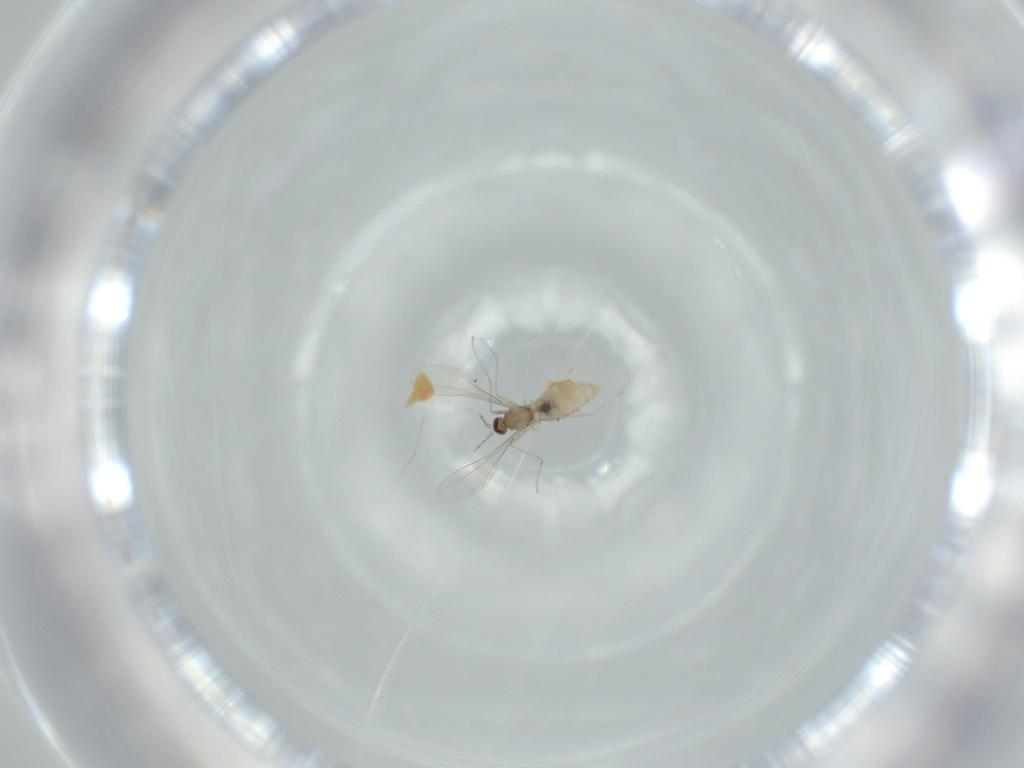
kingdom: Animalia
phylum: Arthropoda
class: Insecta
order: Diptera
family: Cecidomyiidae
